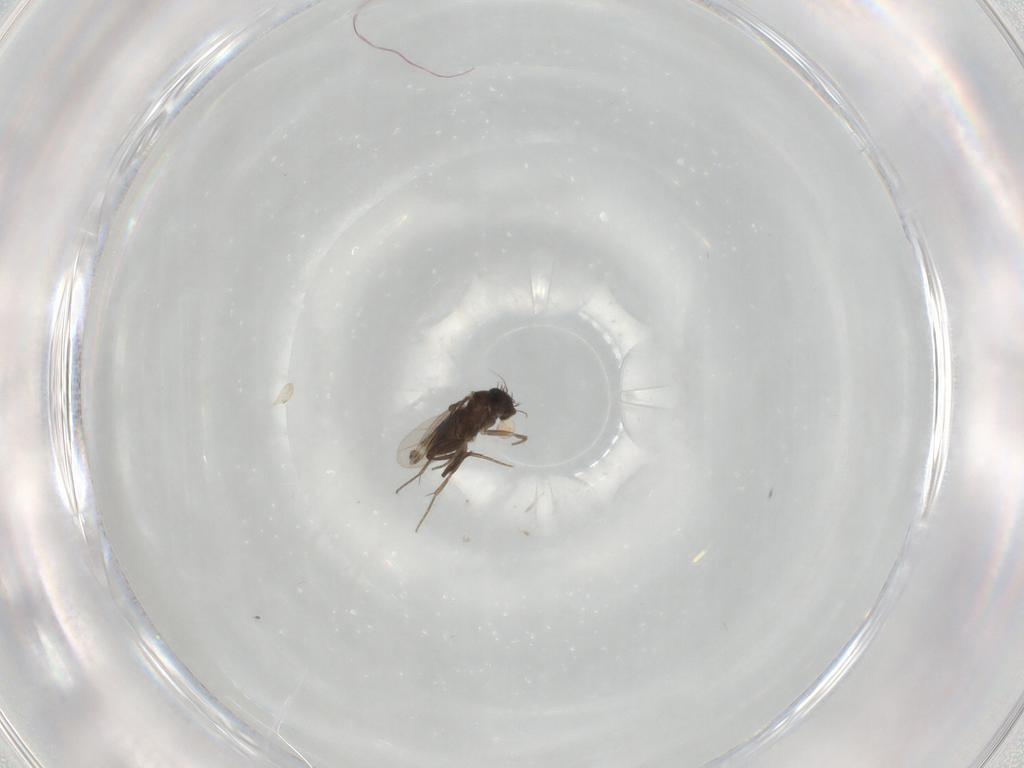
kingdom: Animalia
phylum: Arthropoda
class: Insecta
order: Diptera
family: Phoridae
